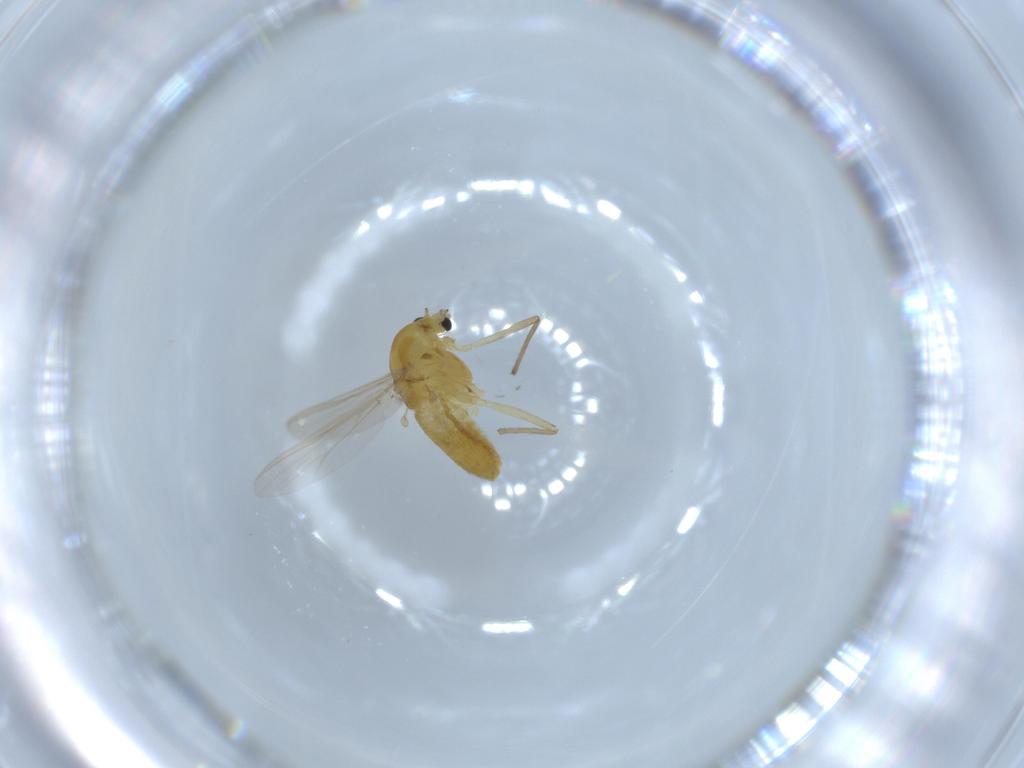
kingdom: Animalia
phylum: Arthropoda
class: Insecta
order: Diptera
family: Chironomidae
